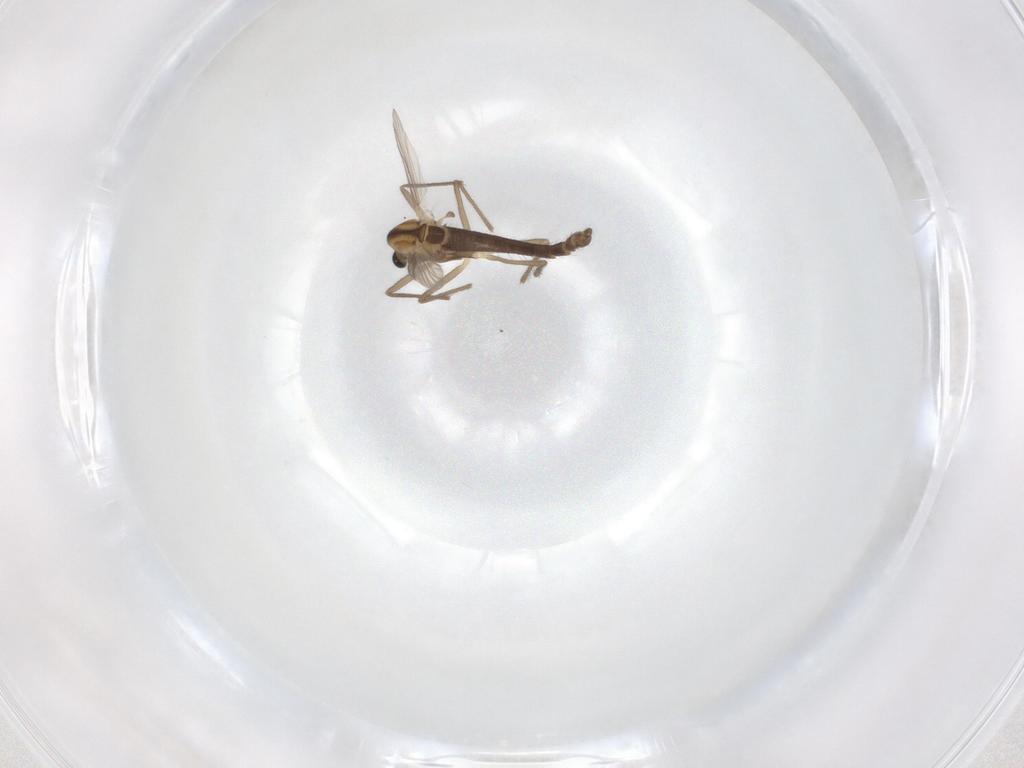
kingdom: Animalia
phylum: Arthropoda
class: Insecta
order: Diptera
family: Chironomidae
